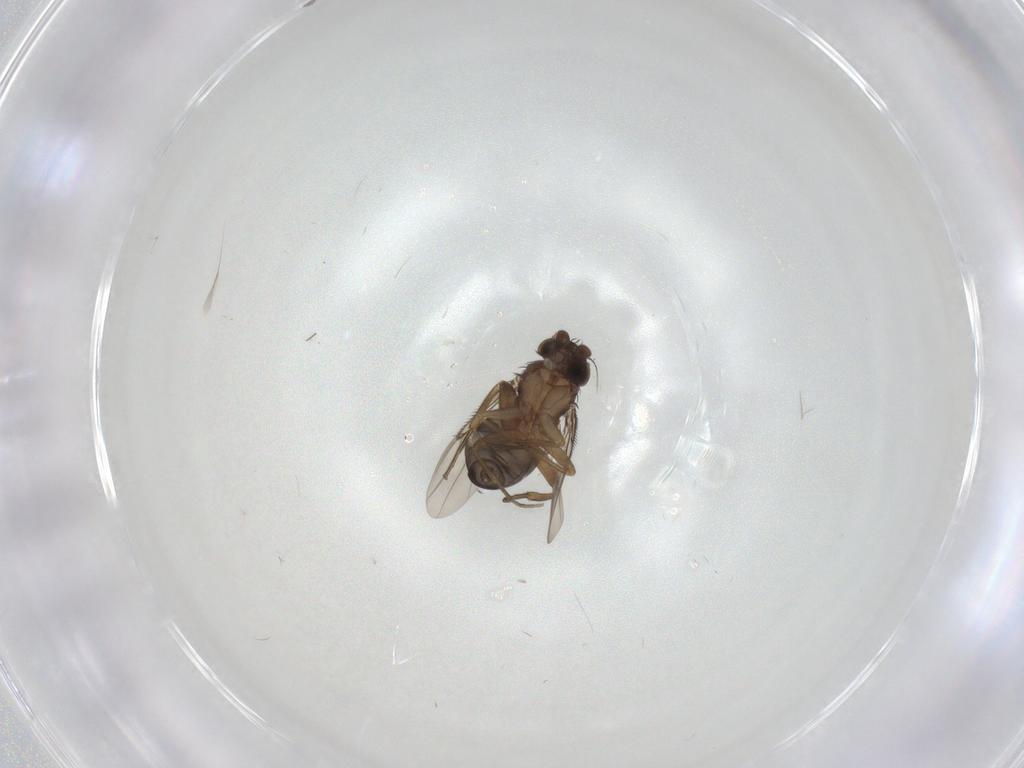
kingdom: Animalia
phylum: Arthropoda
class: Insecta
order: Diptera
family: Phoridae
